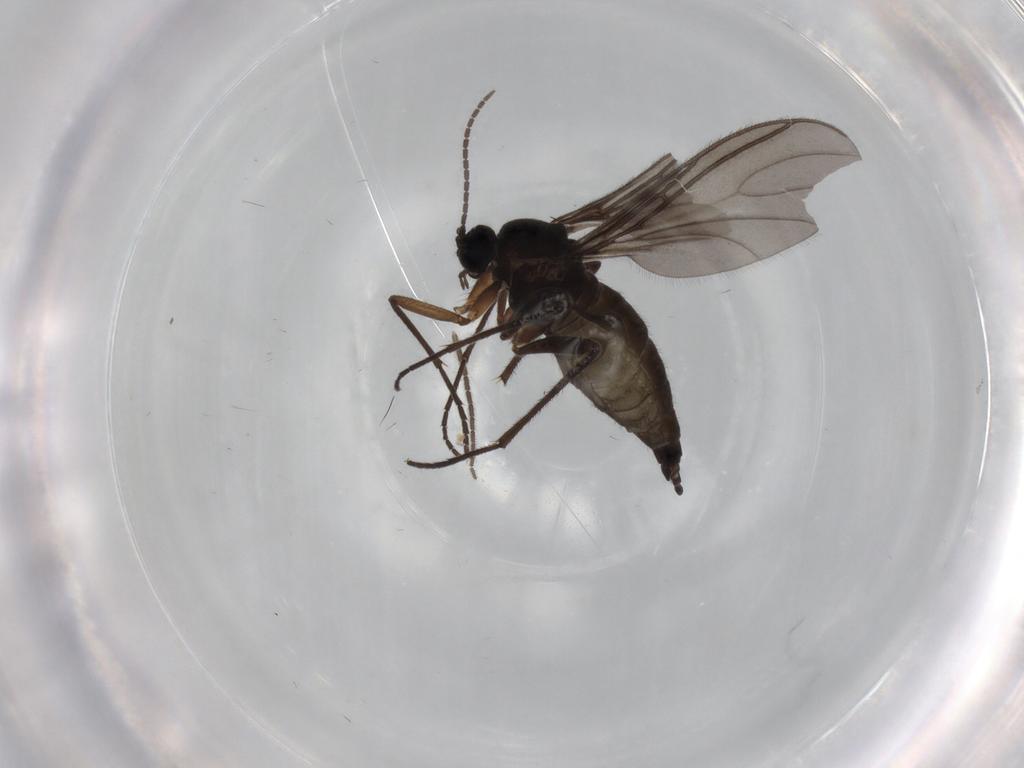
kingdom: Animalia
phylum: Arthropoda
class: Insecta
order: Diptera
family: Sciaridae
